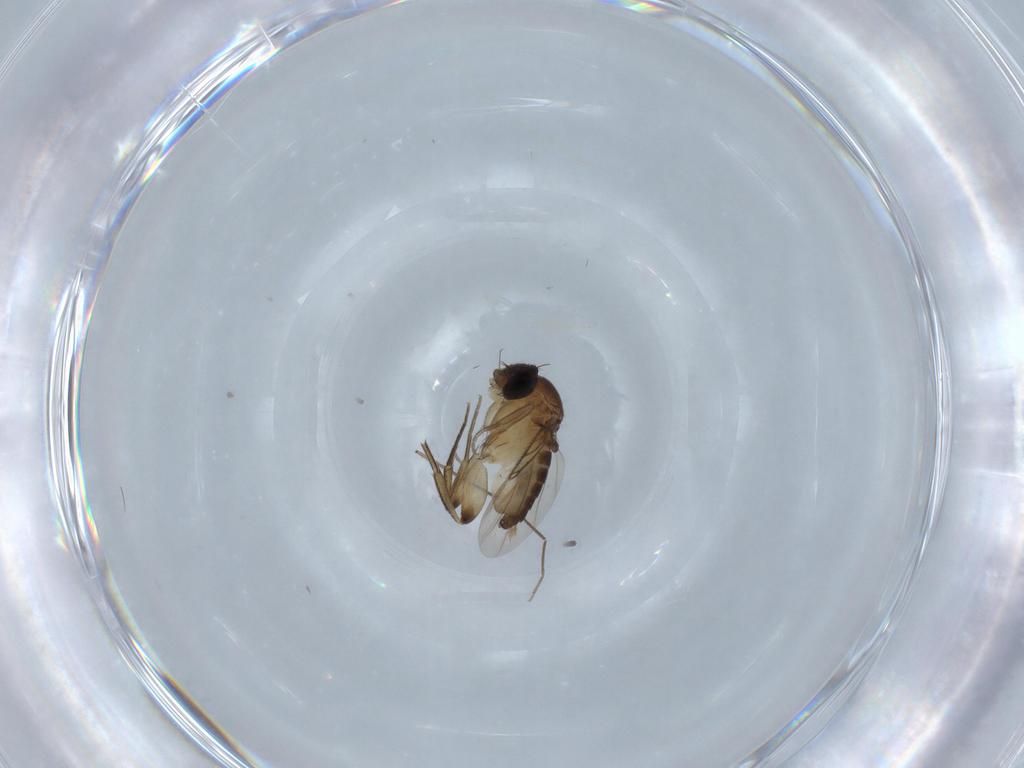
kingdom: Animalia
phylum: Arthropoda
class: Insecta
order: Diptera
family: Phoridae
